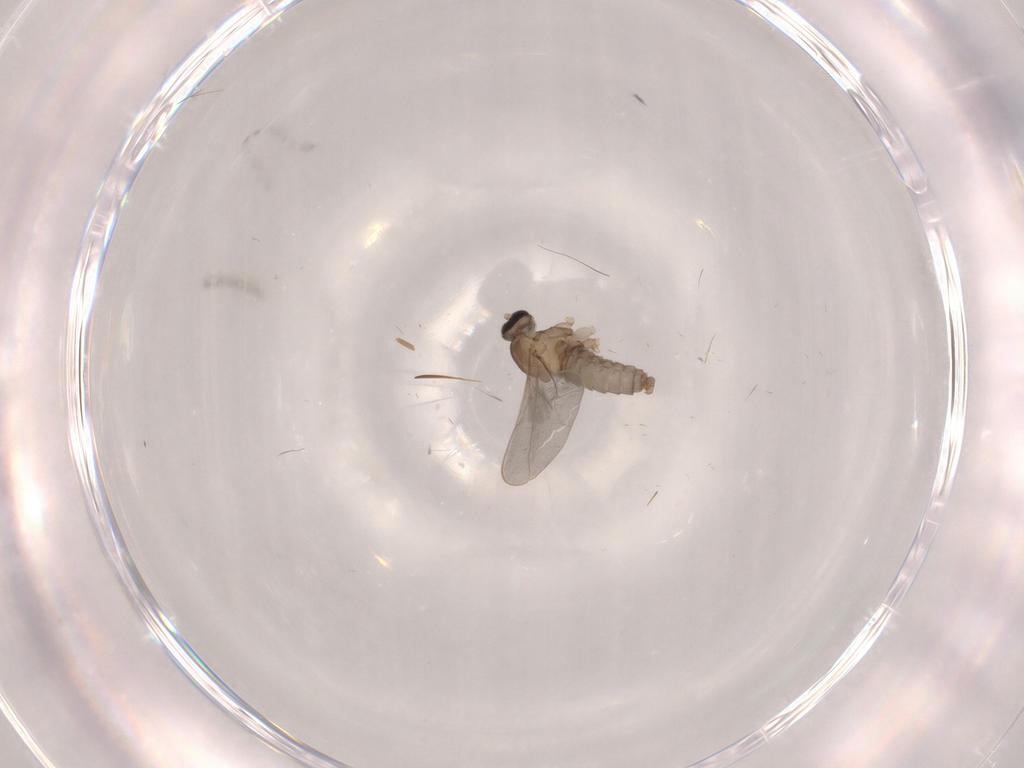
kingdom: Animalia
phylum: Arthropoda
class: Insecta
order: Diptera
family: Cecidomyiidae
